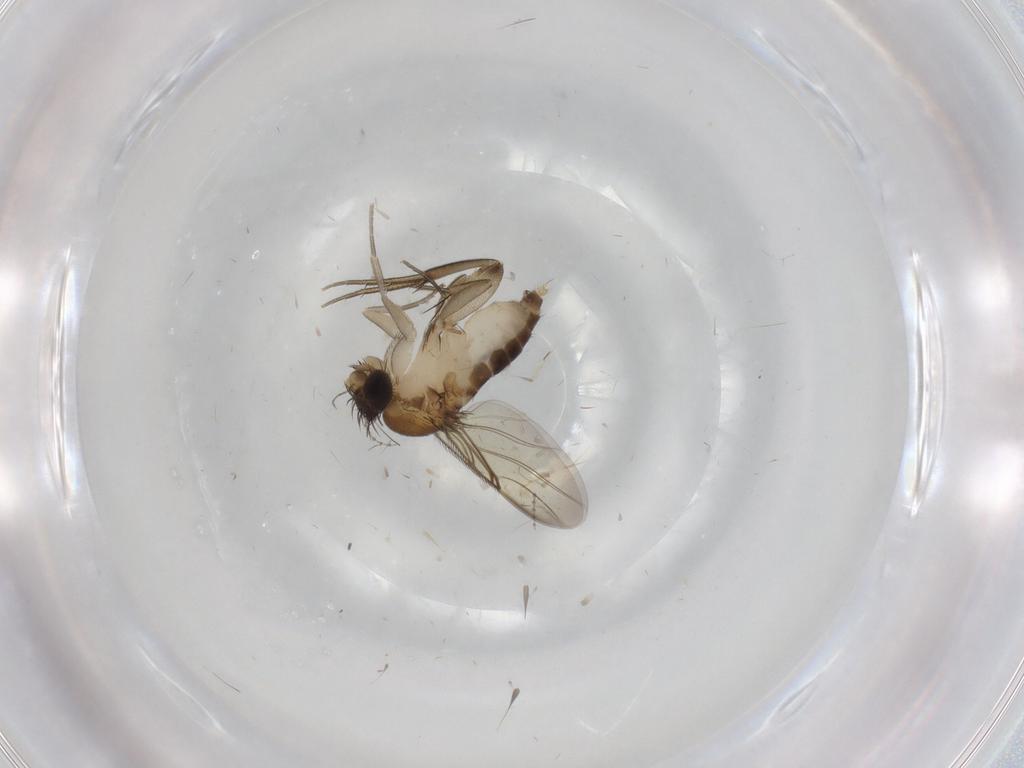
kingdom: Animalia
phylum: Arthropoda
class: Insecta
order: Diptera
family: Phoridae
